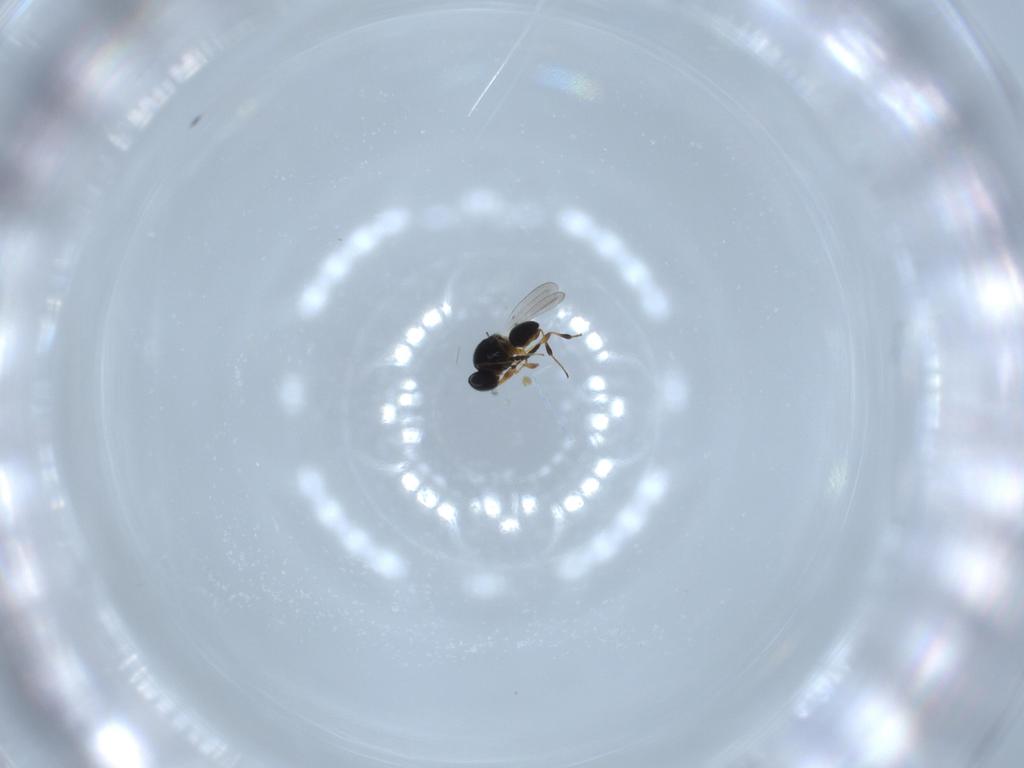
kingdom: Animalia
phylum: Arthropoda
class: Insecta
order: Hymenoptera
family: Platygastridae
